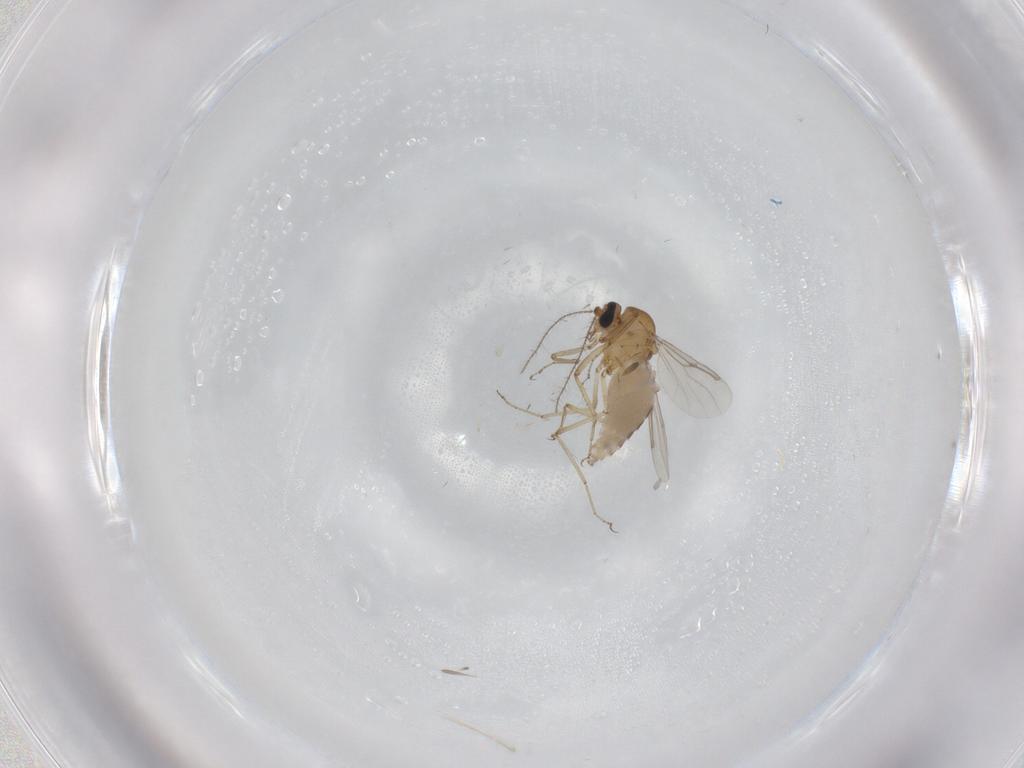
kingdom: Animalia
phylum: Arthropoda
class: Insecta
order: Diptera
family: Ceratopogonidae
